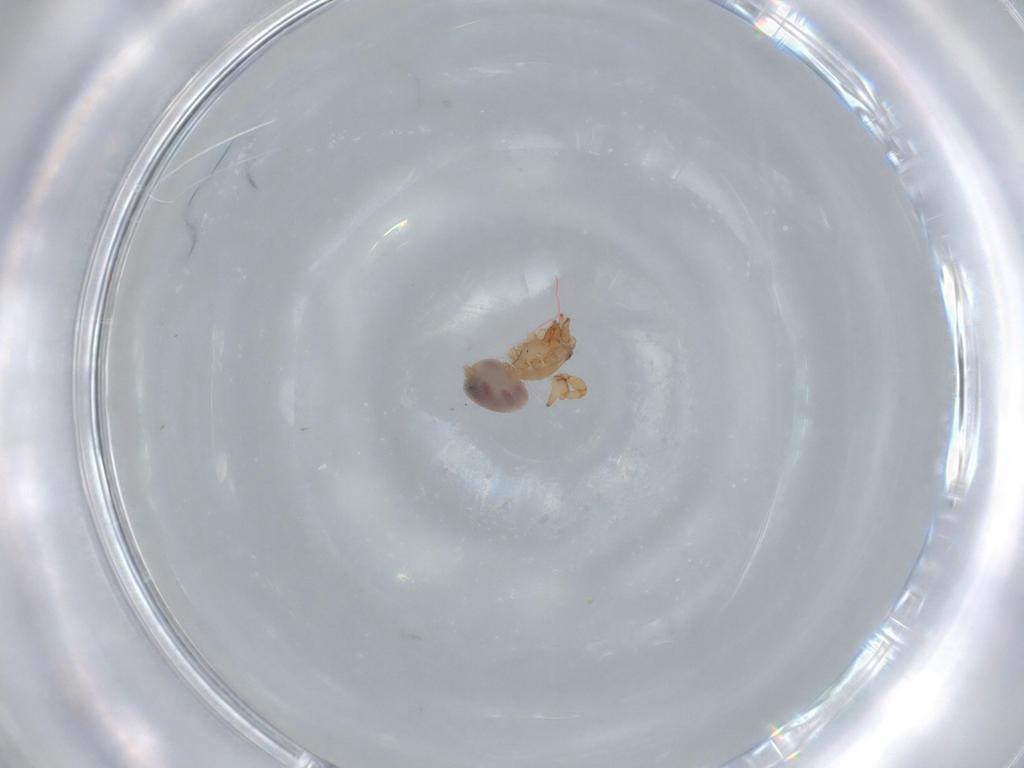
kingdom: Animalia
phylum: Arthropoda
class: Arachnida
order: Araneae
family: Oonopidae
